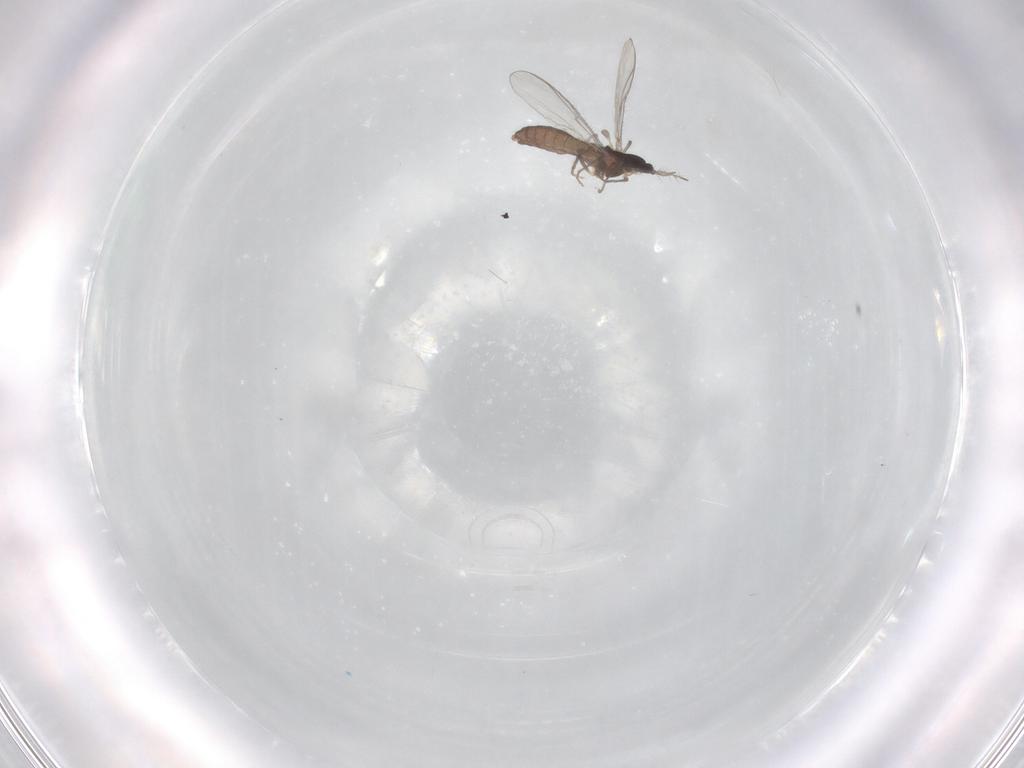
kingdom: Animalia
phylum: Arthropoda
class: Insecta
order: Diptera
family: Chironomidae
